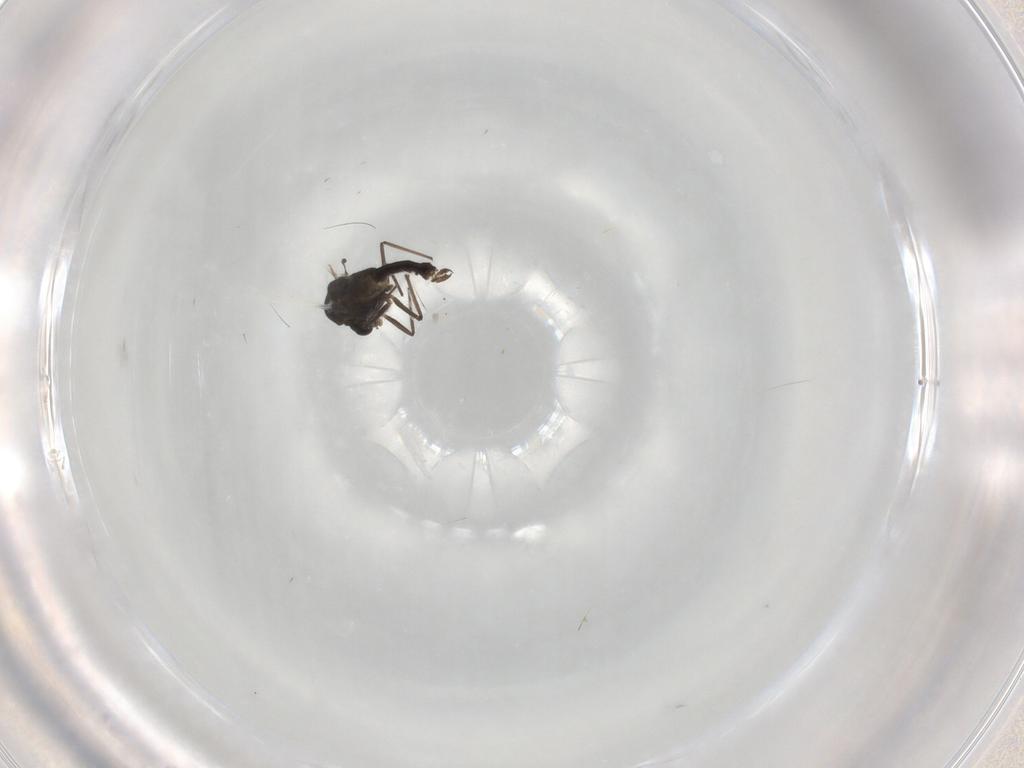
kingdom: Animalia
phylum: Arthropoda
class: Insecta
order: Diptera
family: Chironomidae
